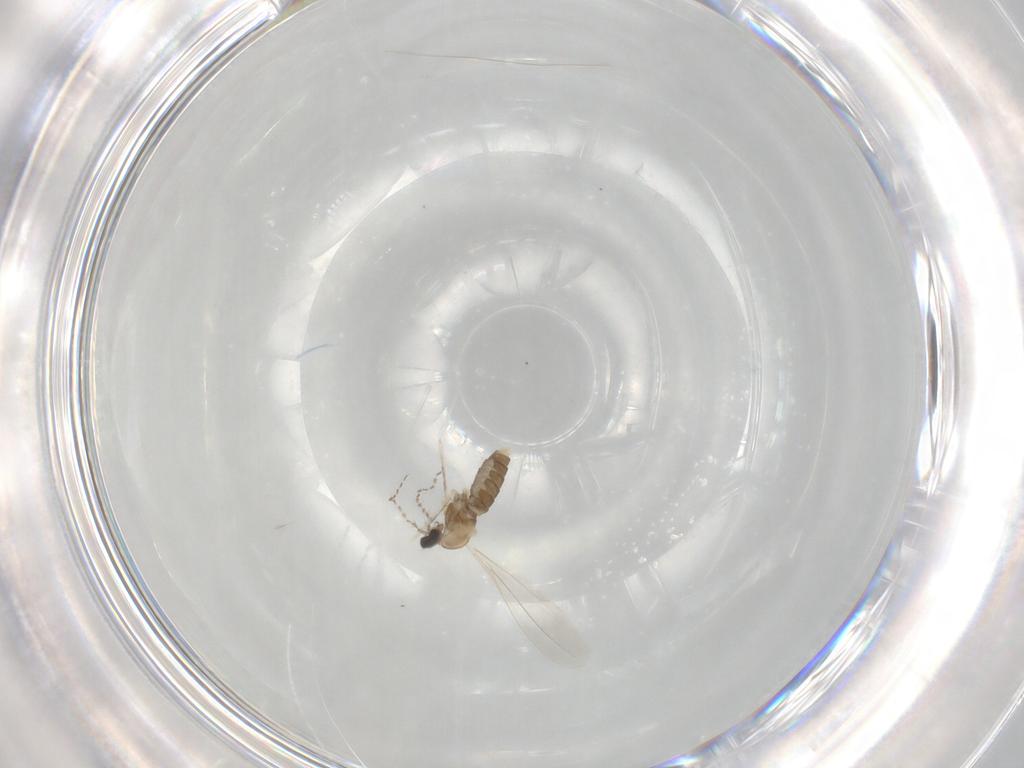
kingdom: Animalia
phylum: Arthropoda
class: Insecta
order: Diptera
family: Cecidomyiidae
